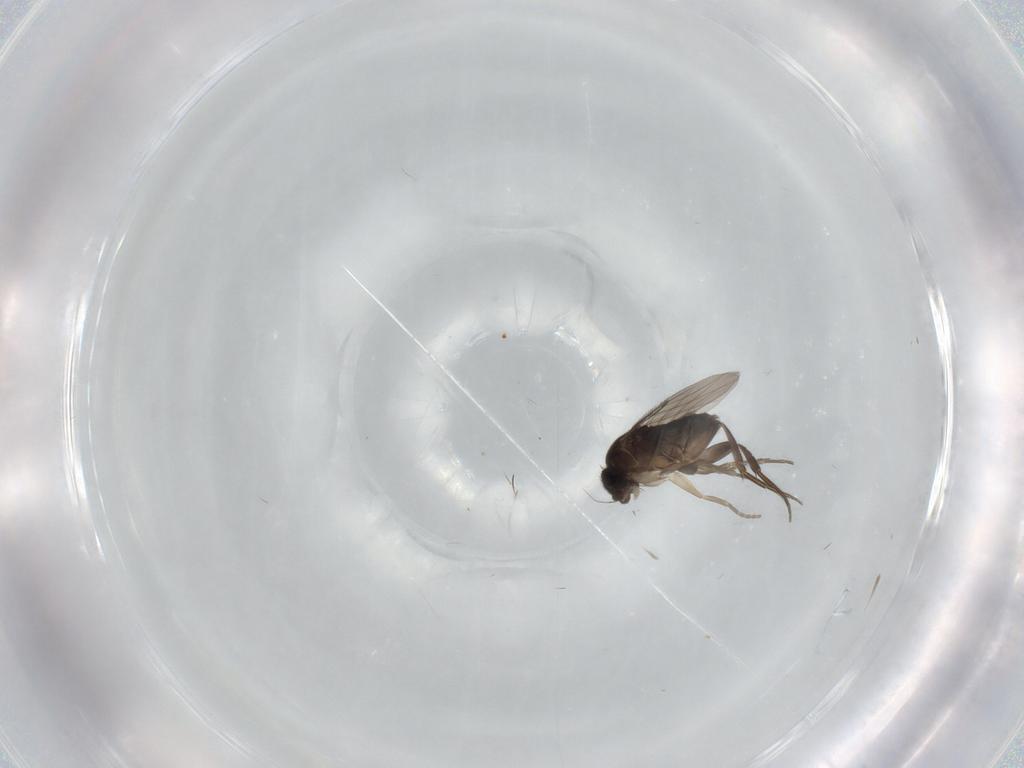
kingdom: Animalia
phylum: Arthropoda
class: Insecta
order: Diptera
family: Phoridae
